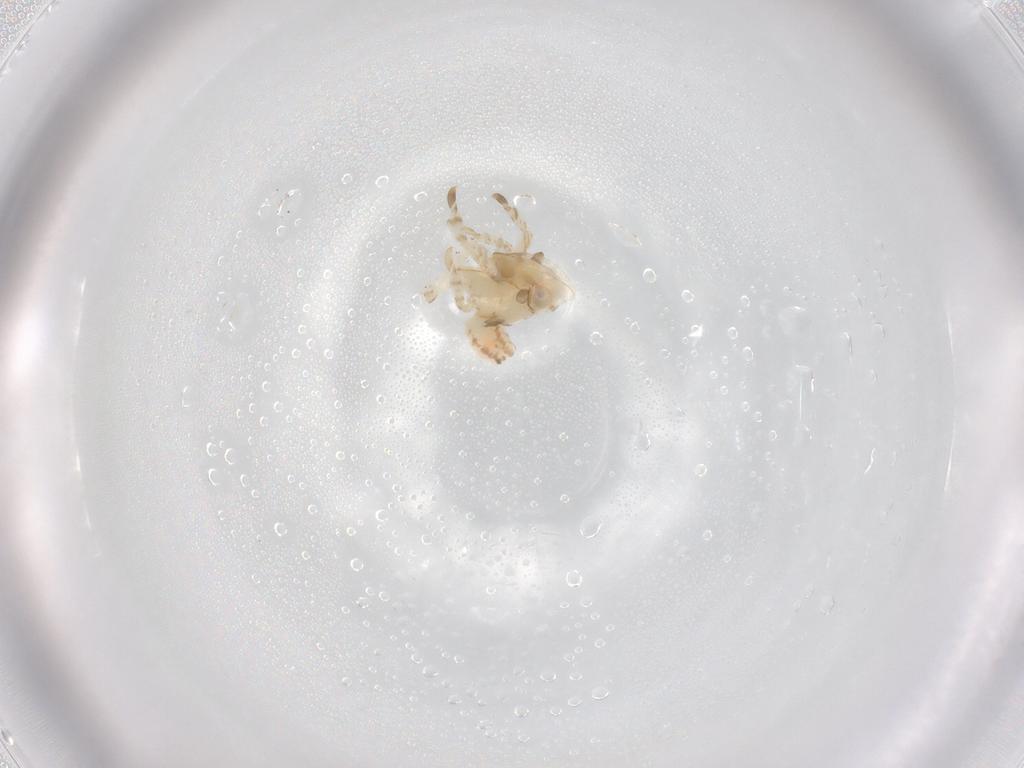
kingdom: Animalia
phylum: Arthropoda
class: Insecta
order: Hemiptera
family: Lophopidae
